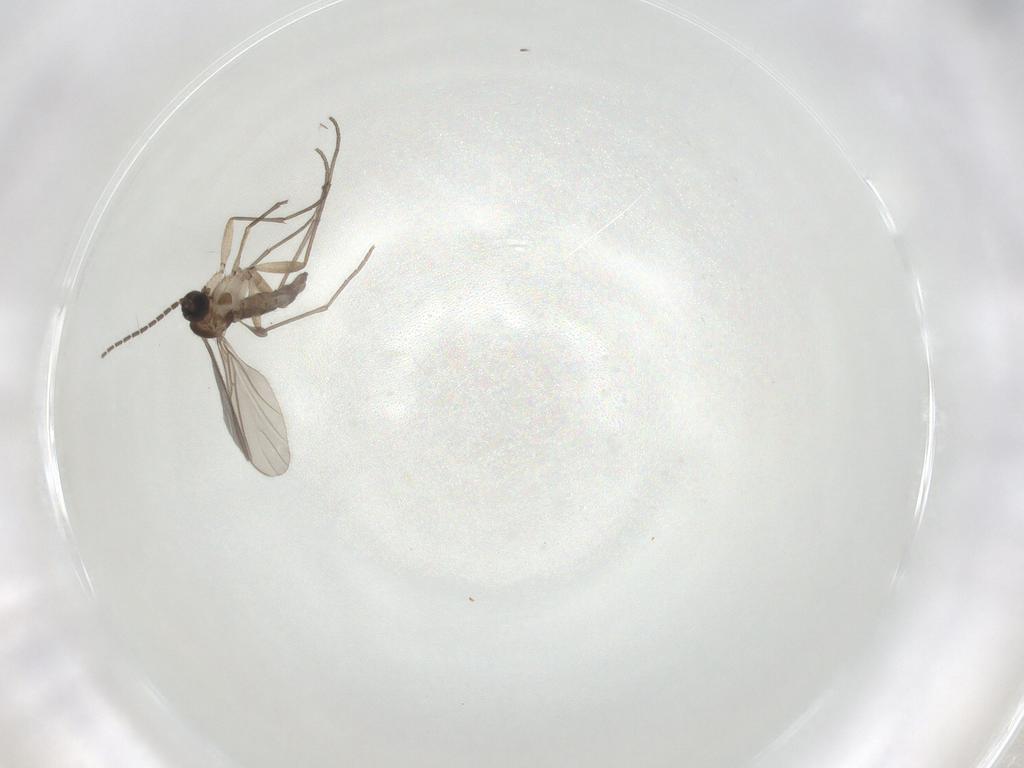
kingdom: Animalia
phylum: Arthropoda
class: Insecta
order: Diptera
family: Sciaridae
